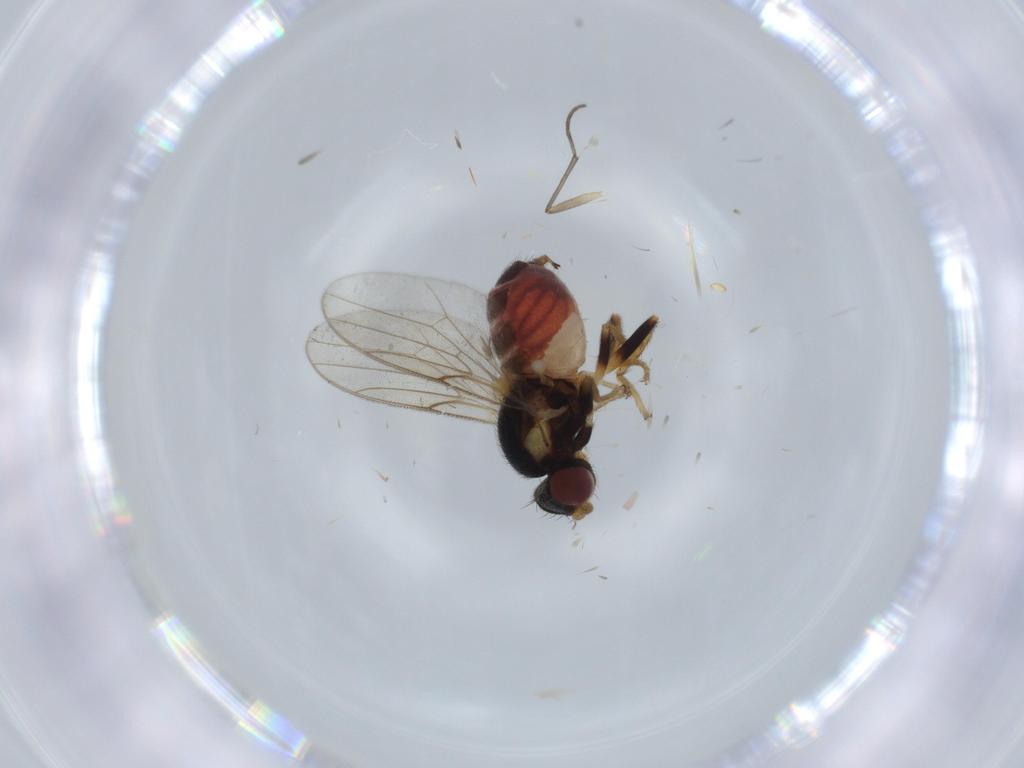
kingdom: Animalia
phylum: Arthropoda
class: Insecta
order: Diptera
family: Chloropidae
